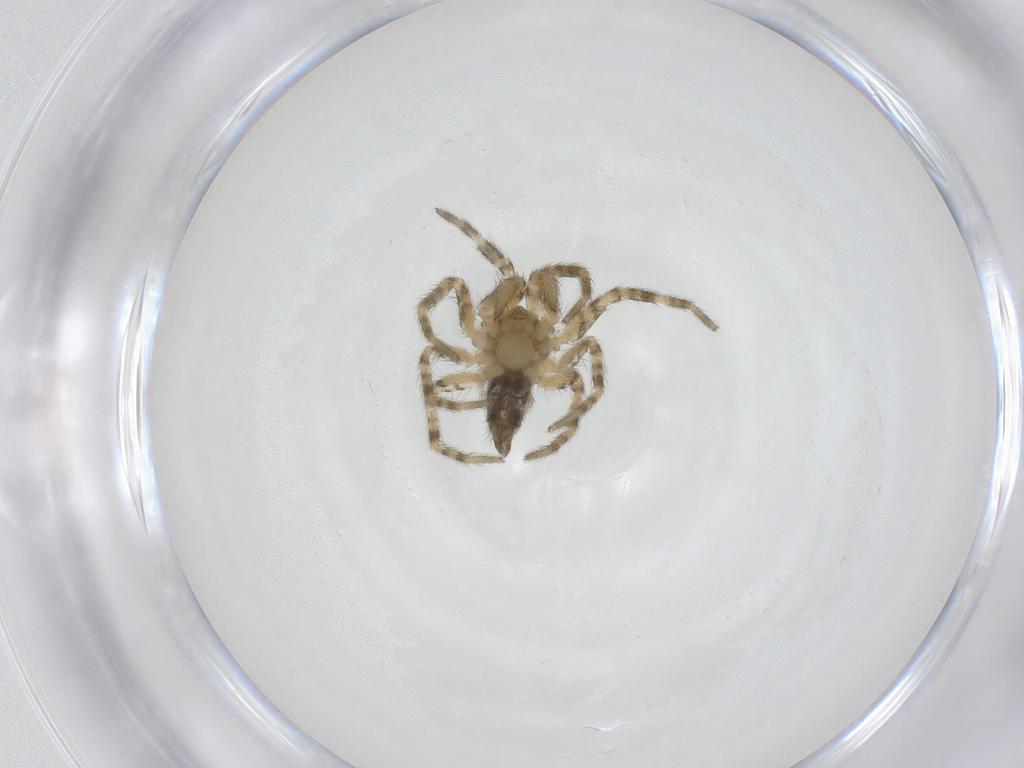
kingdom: Animalia
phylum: Arthropoda
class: Arachnida
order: Araneae
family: Oecobiidae
